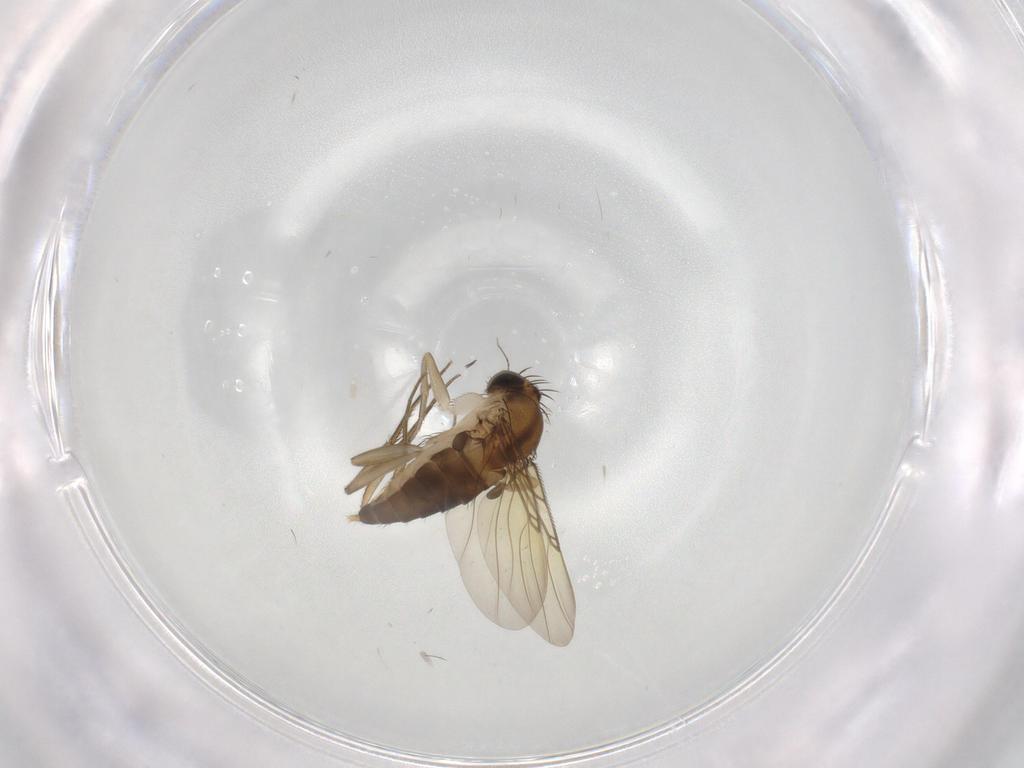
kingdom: Animalia
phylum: Arthropoda
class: Insecta
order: Diptera
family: Phoridae
